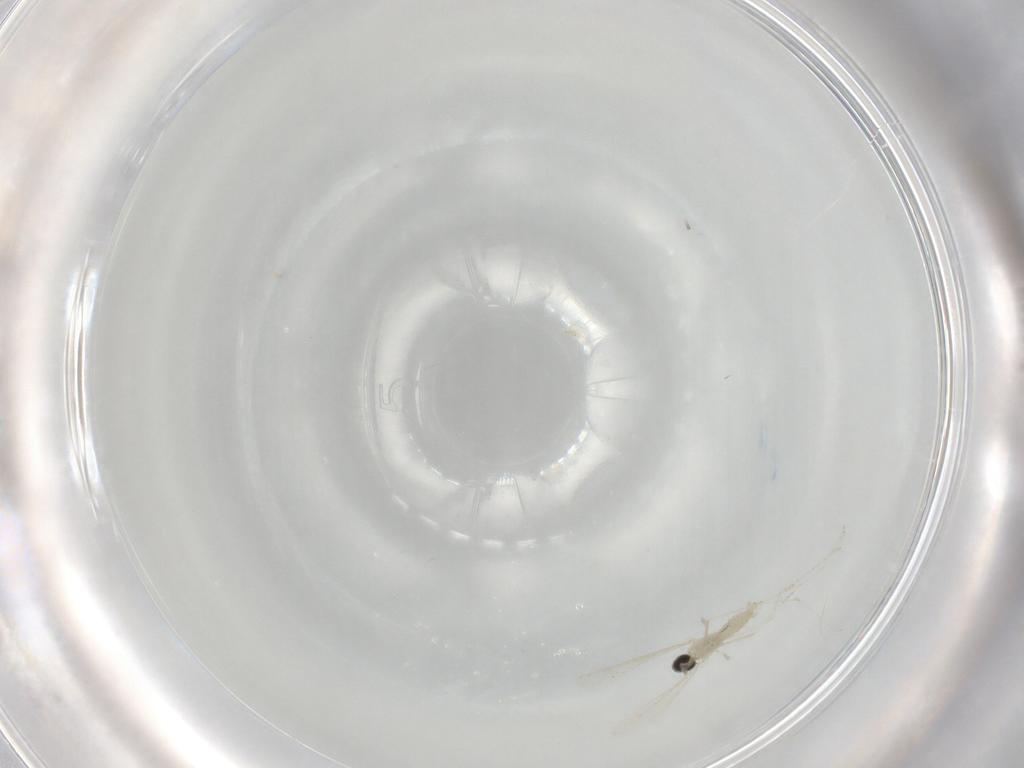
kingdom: Animalia
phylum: Arthropoda
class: Insecta
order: Diptera
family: Cecidomyiidae
